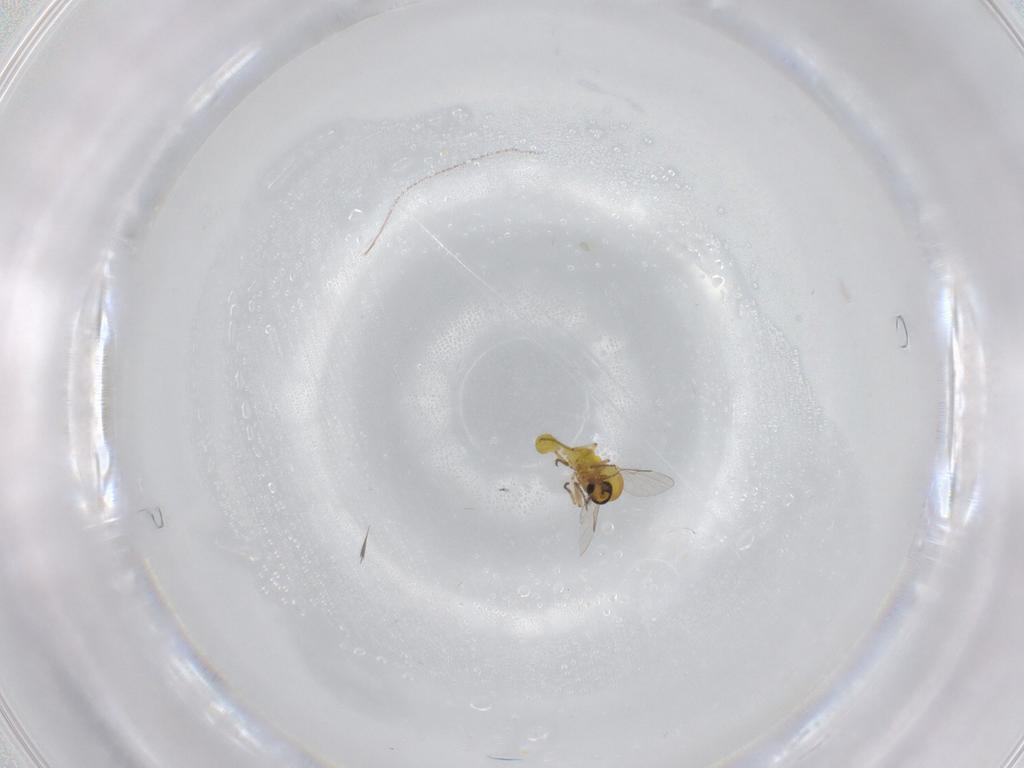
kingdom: Animalia
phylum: Arthropoda
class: Insecta
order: Diptera
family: Ceratopogonidae
